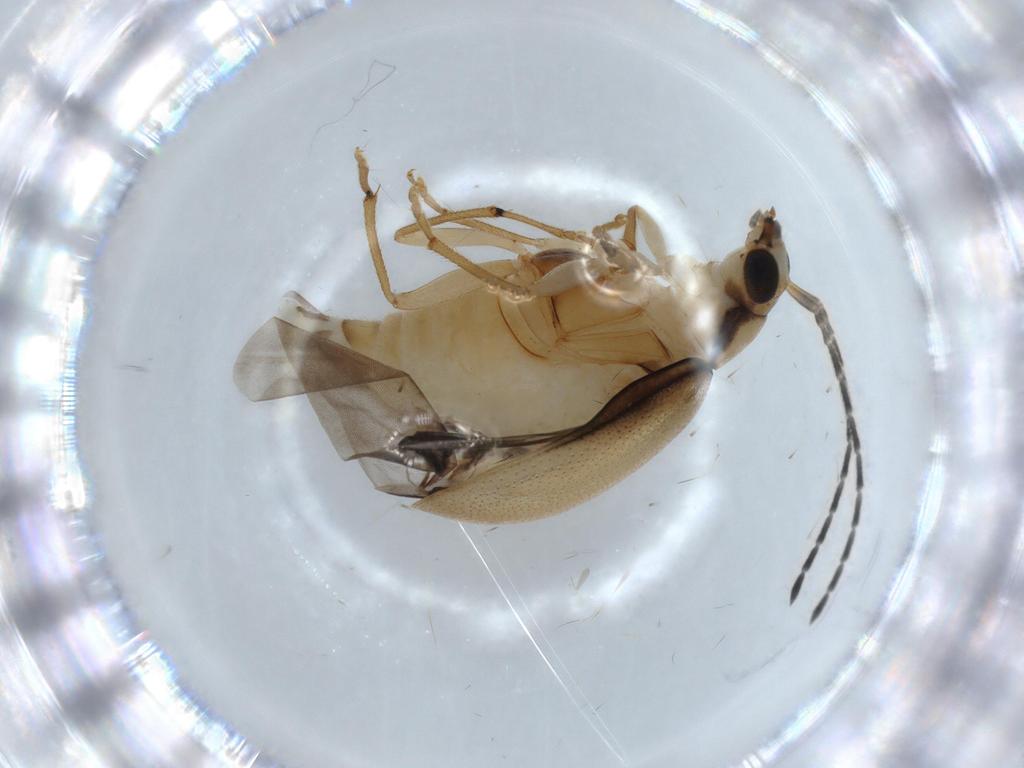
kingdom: Animalia
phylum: Arthropoda
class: Insecta
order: Coleoptera
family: Chrysomelidae
